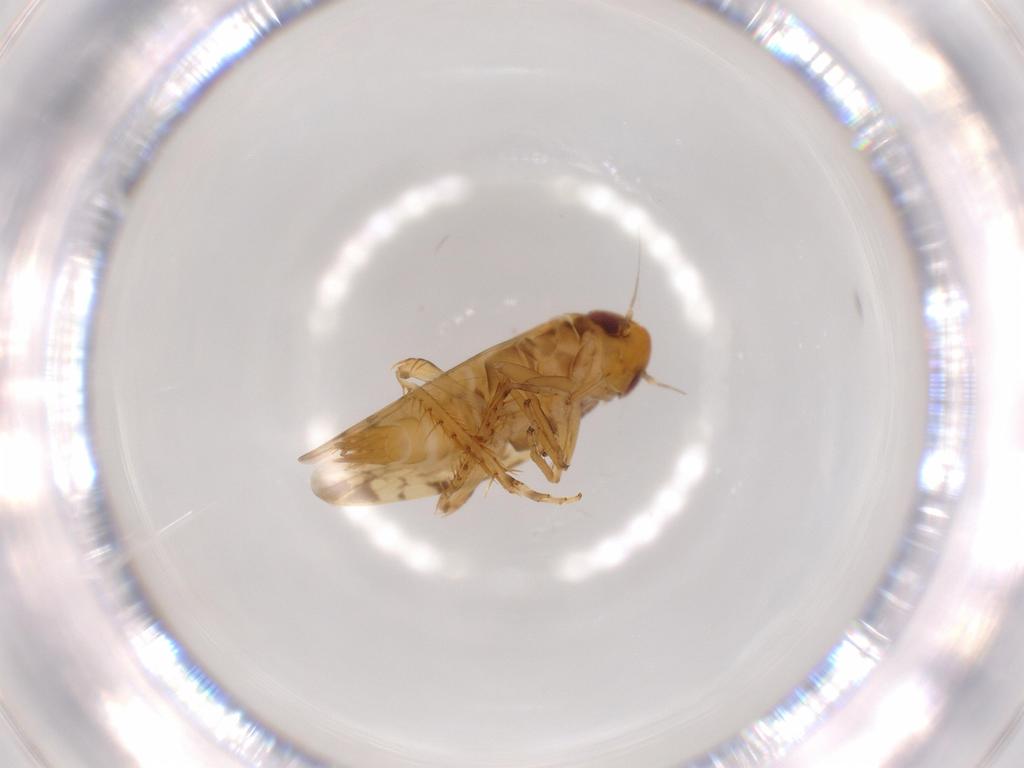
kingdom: Animalia
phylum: Arthropoda
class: Insecta
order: Hemiptera
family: Cicadellidae
